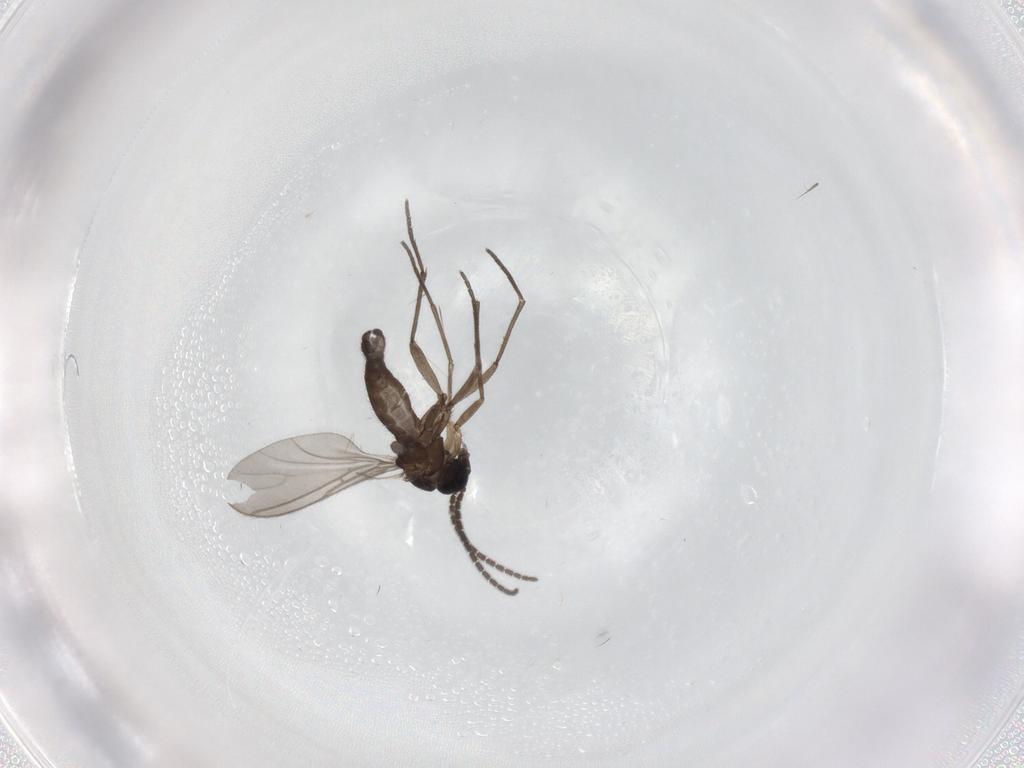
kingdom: Animalia
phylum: Arthropoda
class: Insecta
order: Diptera
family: Sciaridae
